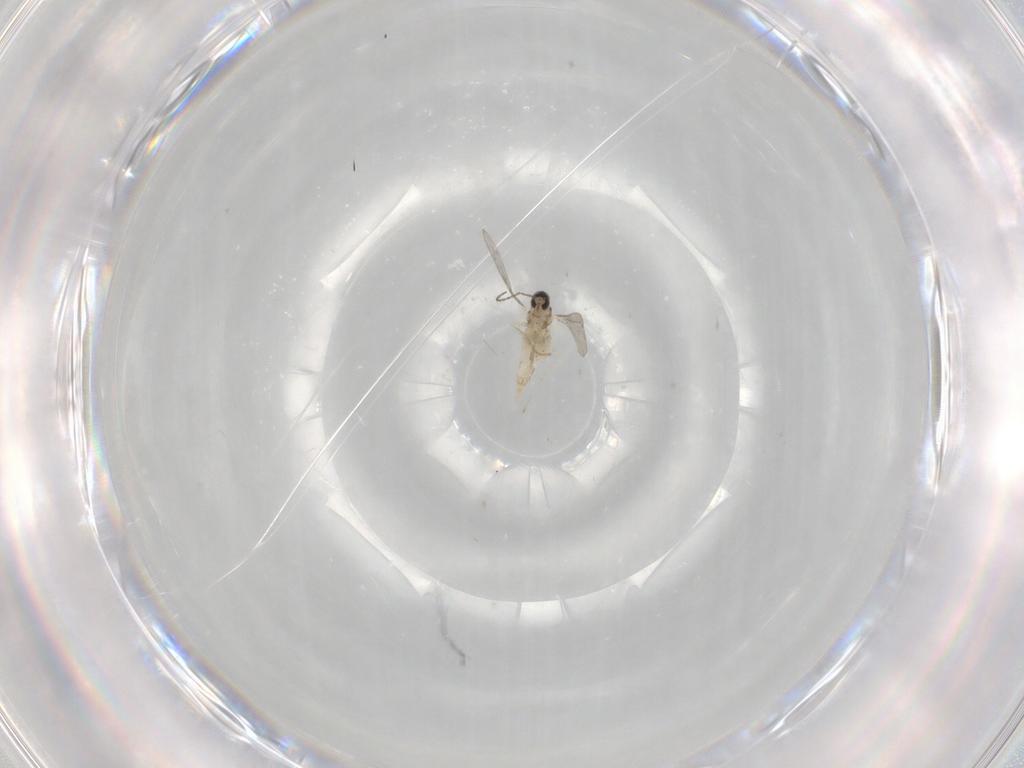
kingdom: Animalia
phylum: Arthropoda
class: Insecta
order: Diptera
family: Cecidomyiidae
